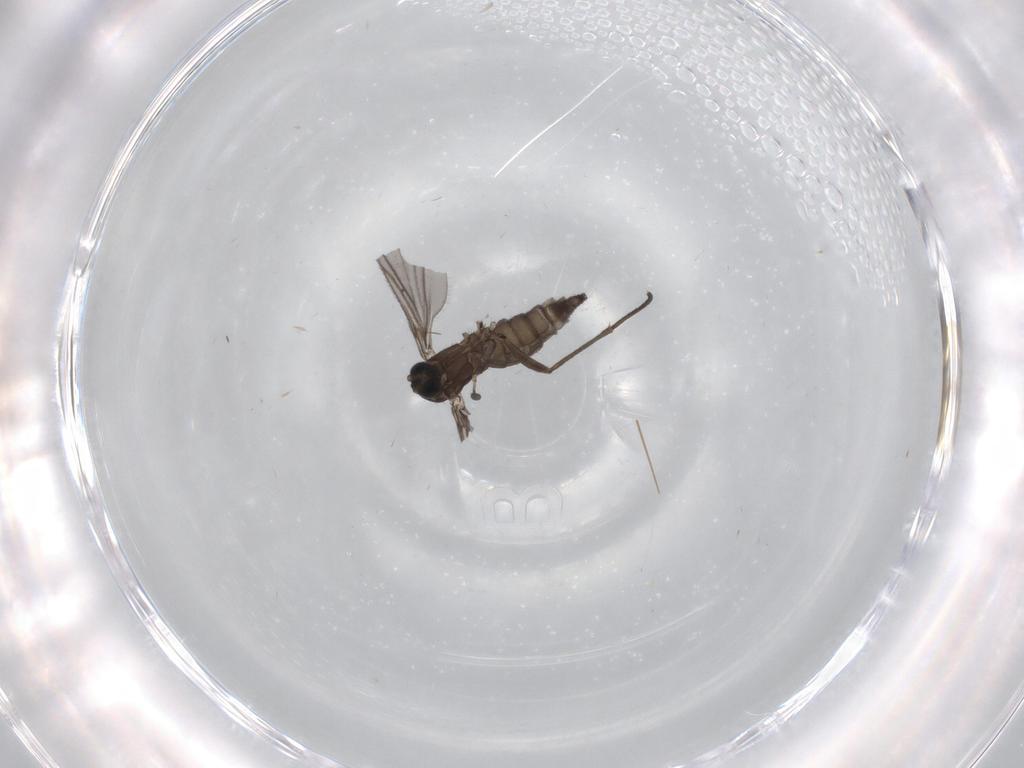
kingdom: Animalia
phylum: Arthropoda
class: Insecta
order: Diptera
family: Sciaridae
